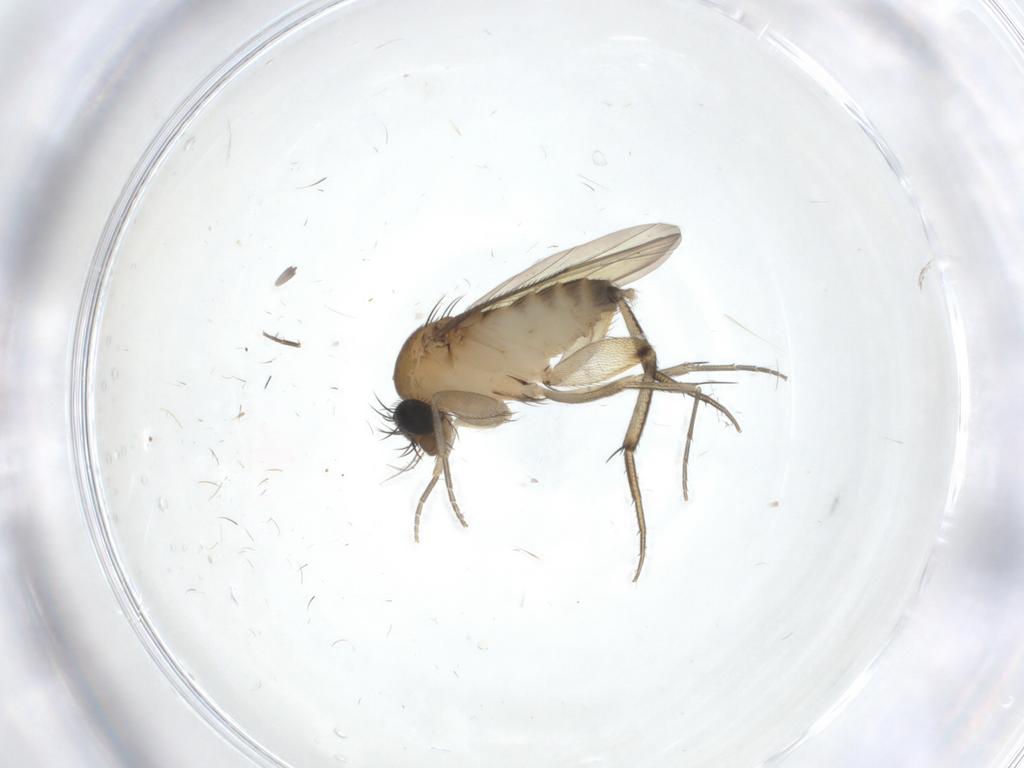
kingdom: Animalia
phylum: Arthropoda
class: Insecta
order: Diptera
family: Phoridae
